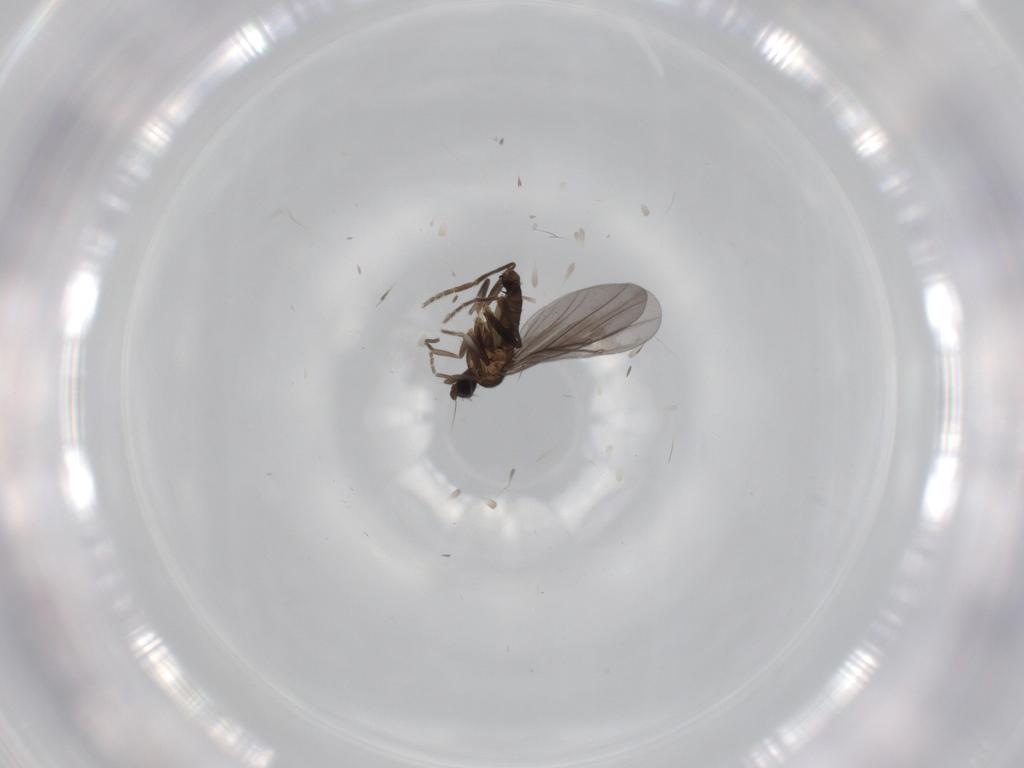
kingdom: Animalia
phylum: Arthropoda
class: Insecta
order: Diptera
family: Phoridae
